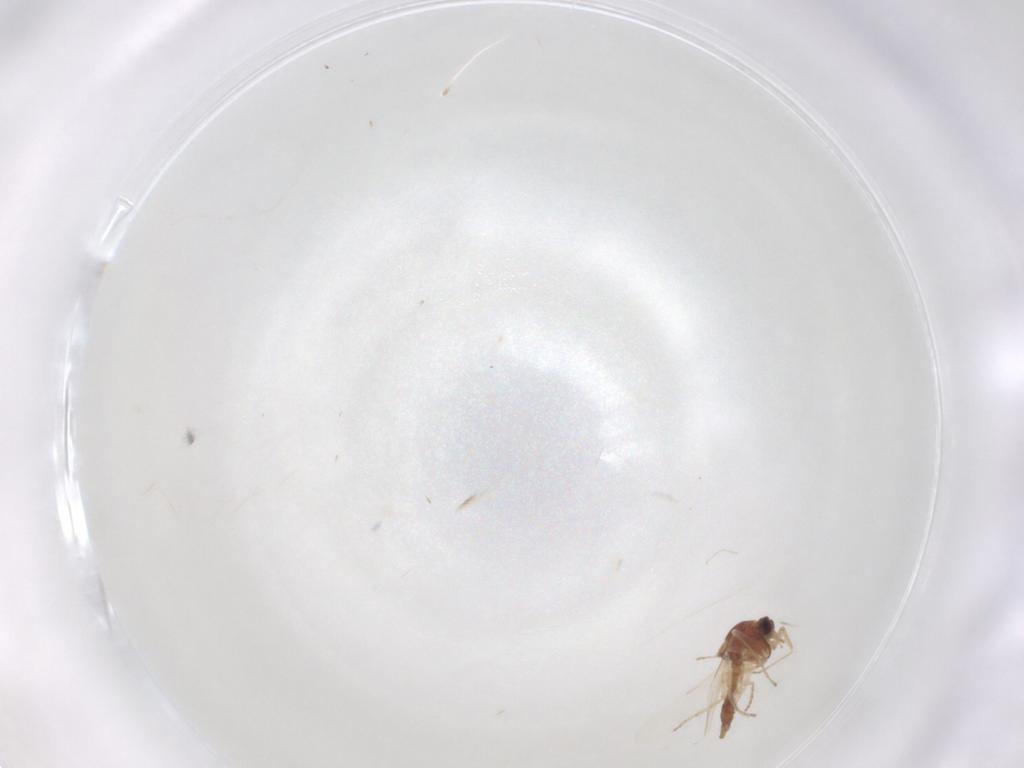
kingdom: Animalia
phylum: Arthropoda
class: Insecta
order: Diptera
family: Ceratopogonidae
